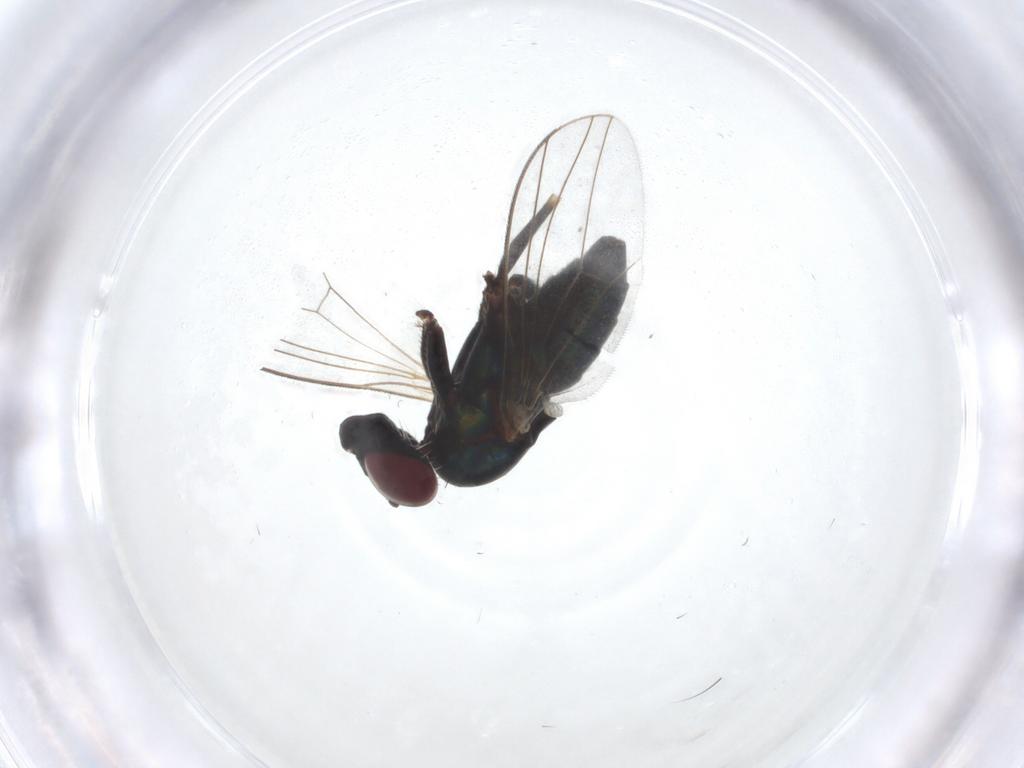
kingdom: Animalia
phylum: Arthropoda
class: Insecta
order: Diptera
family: Dolichopodidae
